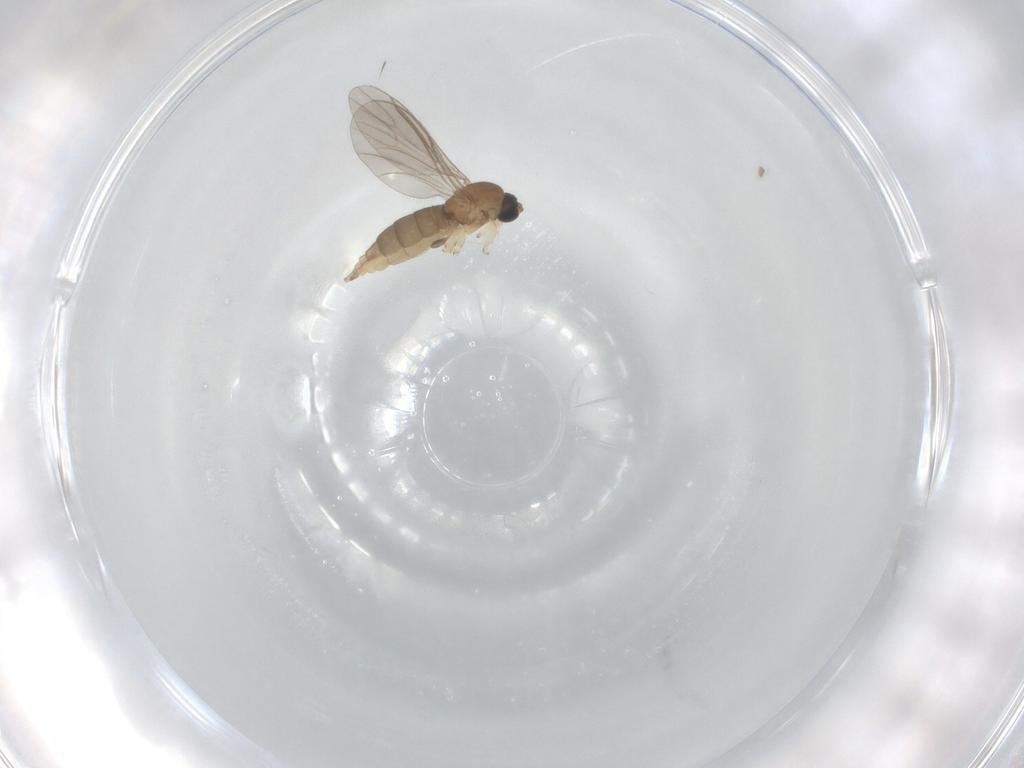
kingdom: Animalia
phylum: Arthropoda
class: Insecta
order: Diptera
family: Sciaridae
